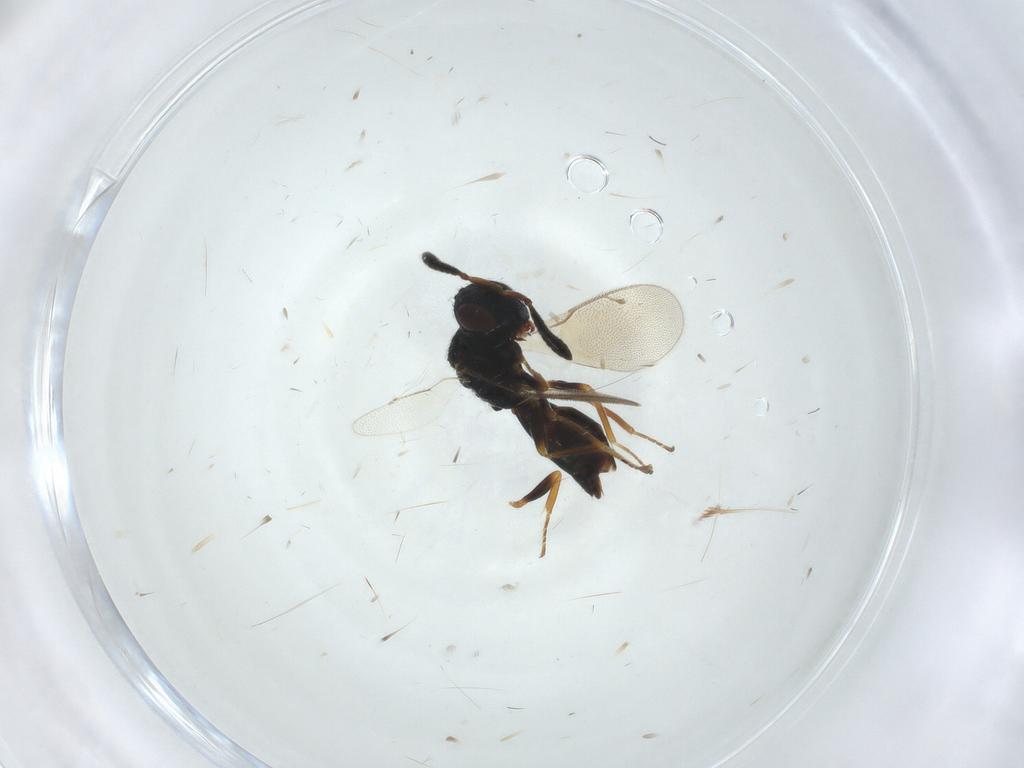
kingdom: Animalia
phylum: Arthropoda
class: Insecta
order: Hymenoptera
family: Pteromalidae
